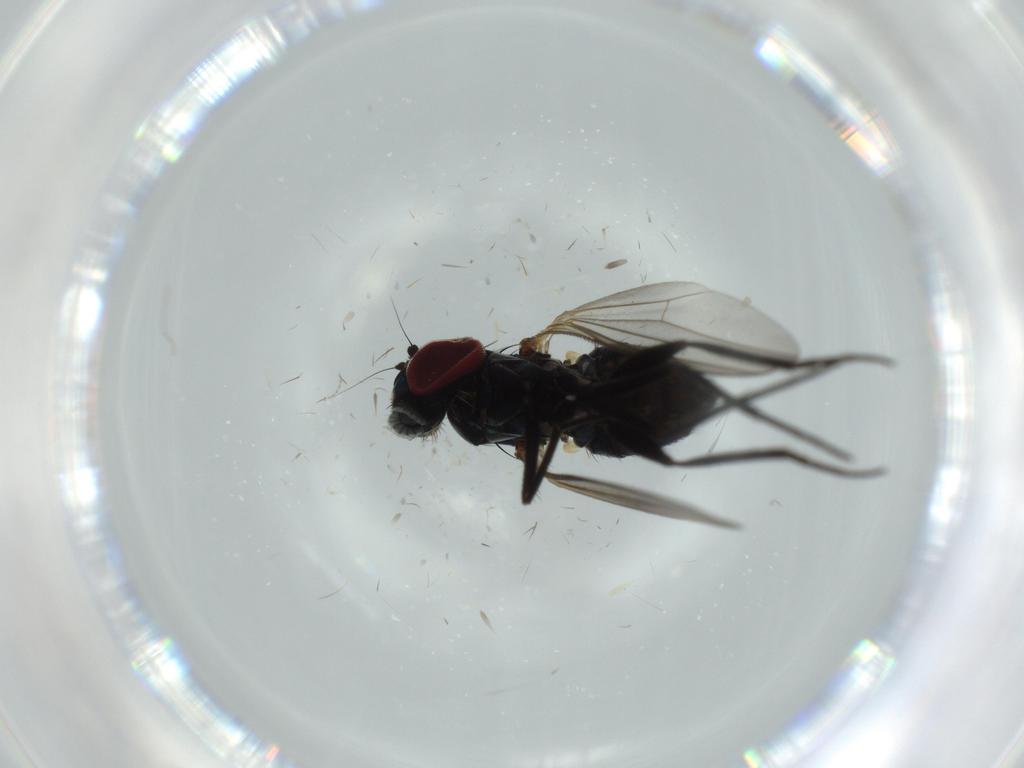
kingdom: Animalia
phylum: Arthropoda
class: Insecta
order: Diptera
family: Dolichopodidae
